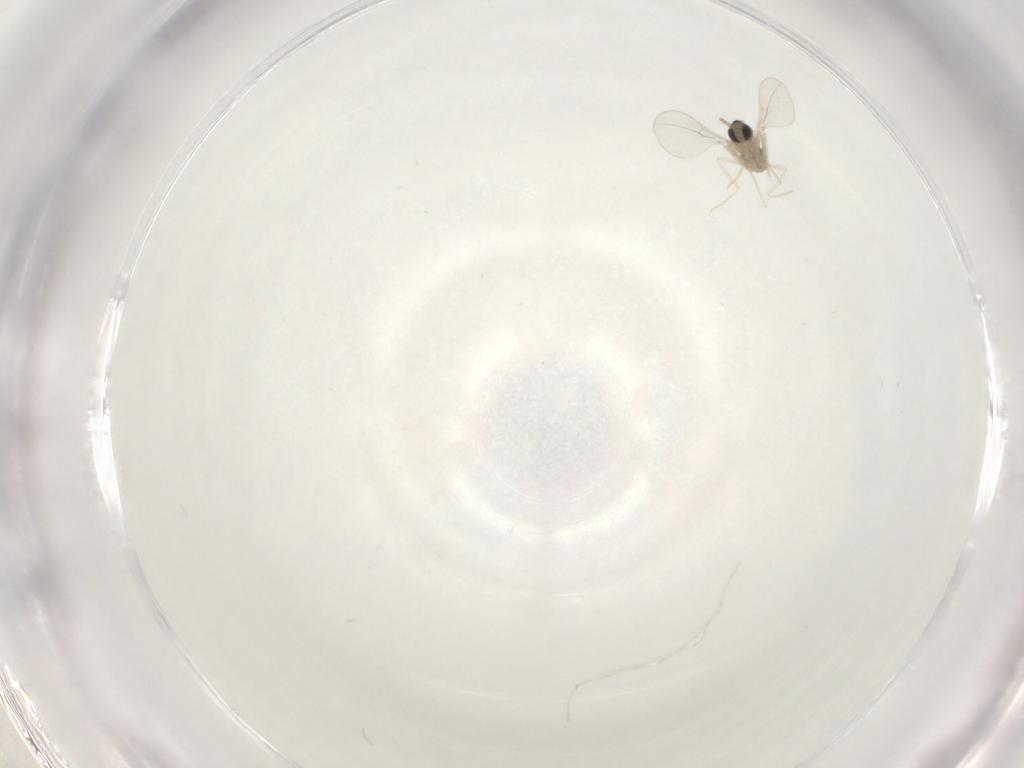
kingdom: Animalia
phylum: Arthropoda
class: Insecta
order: Diptera
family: Cecidomyiidae
